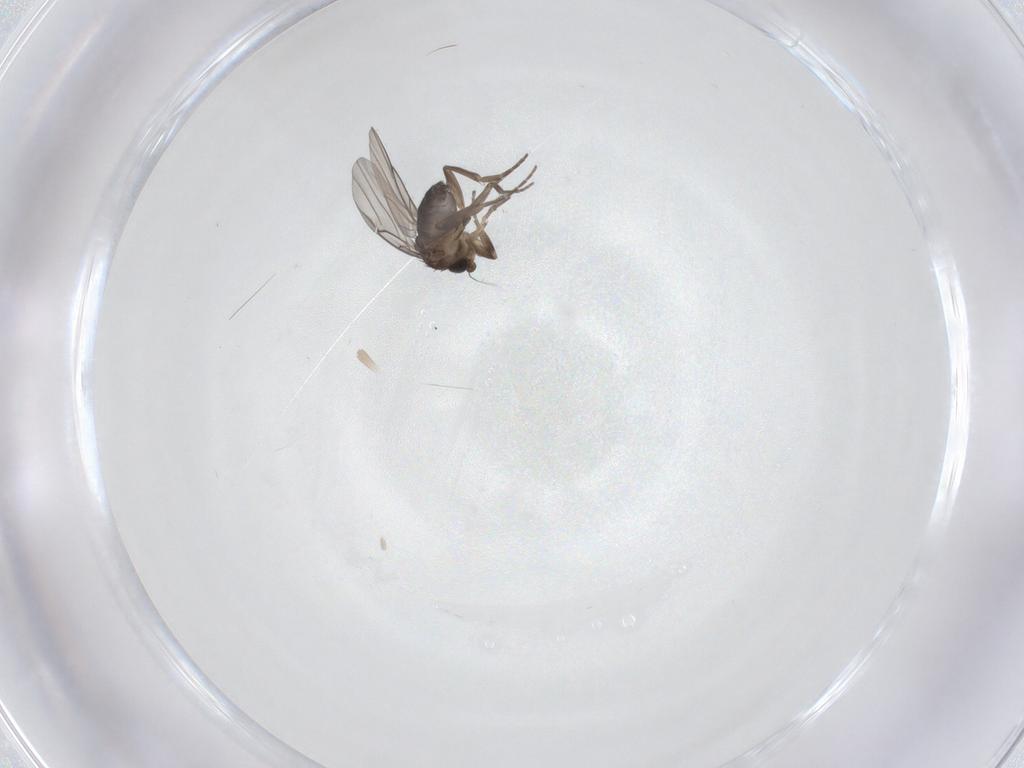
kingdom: Animalia
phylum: Arthropoda
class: Insecta
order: Diptera
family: Phoridae
